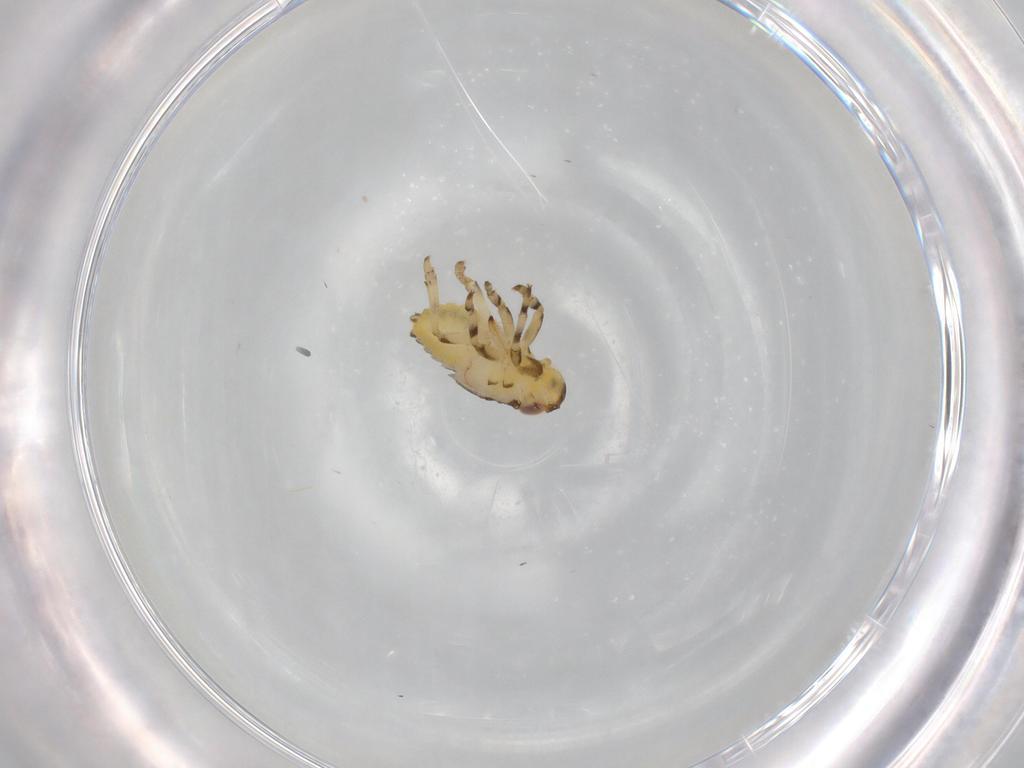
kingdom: Animalia
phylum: Arthropoda
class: Insecta
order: Hemiptera
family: Issidae
